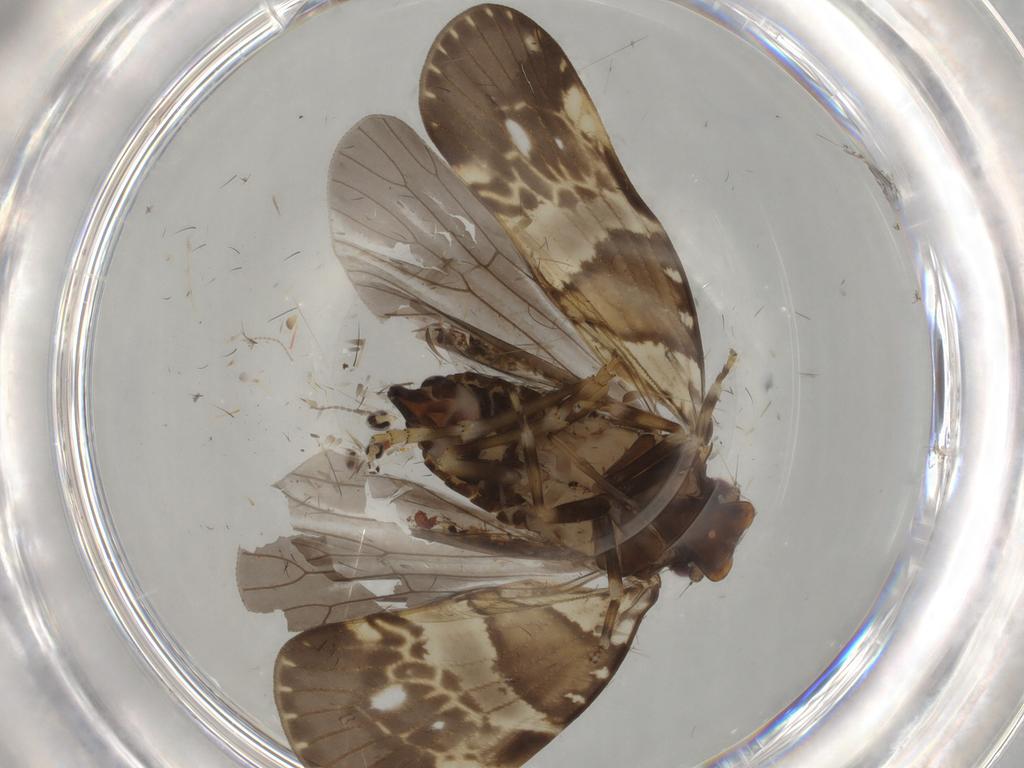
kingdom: Animalia
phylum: Arthropoda
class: Insecta
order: Hemiptera
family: Cixiidae
